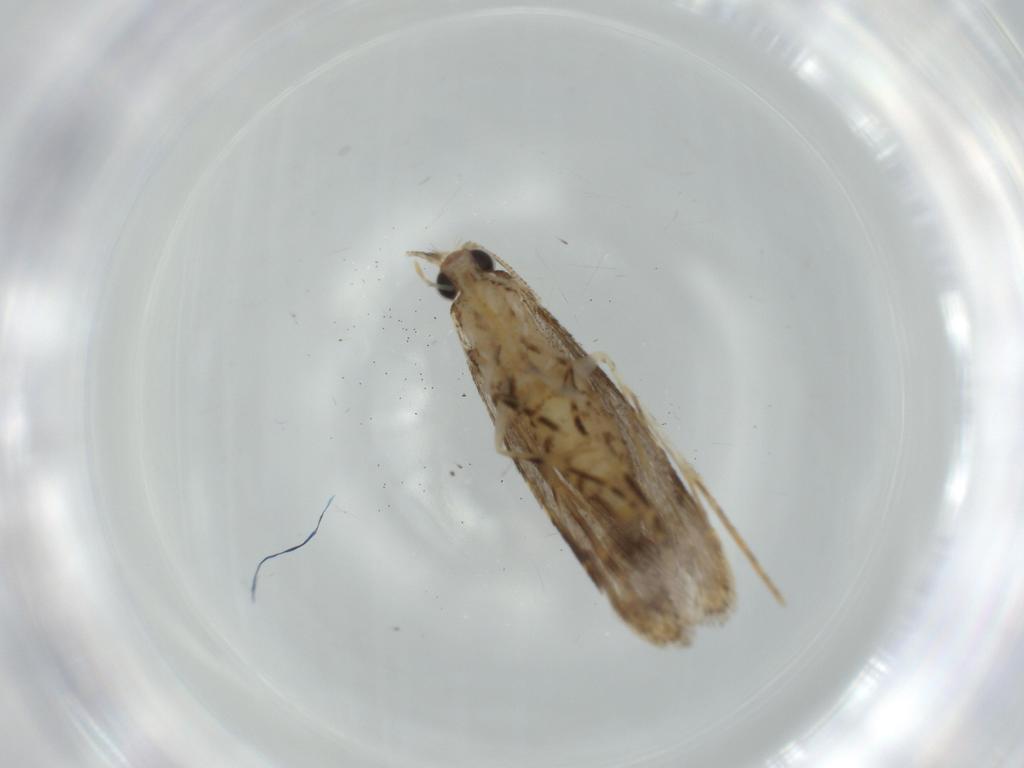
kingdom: Animalia
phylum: Arthropoda
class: Insecta
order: Lepidoptera
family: Tineidae
